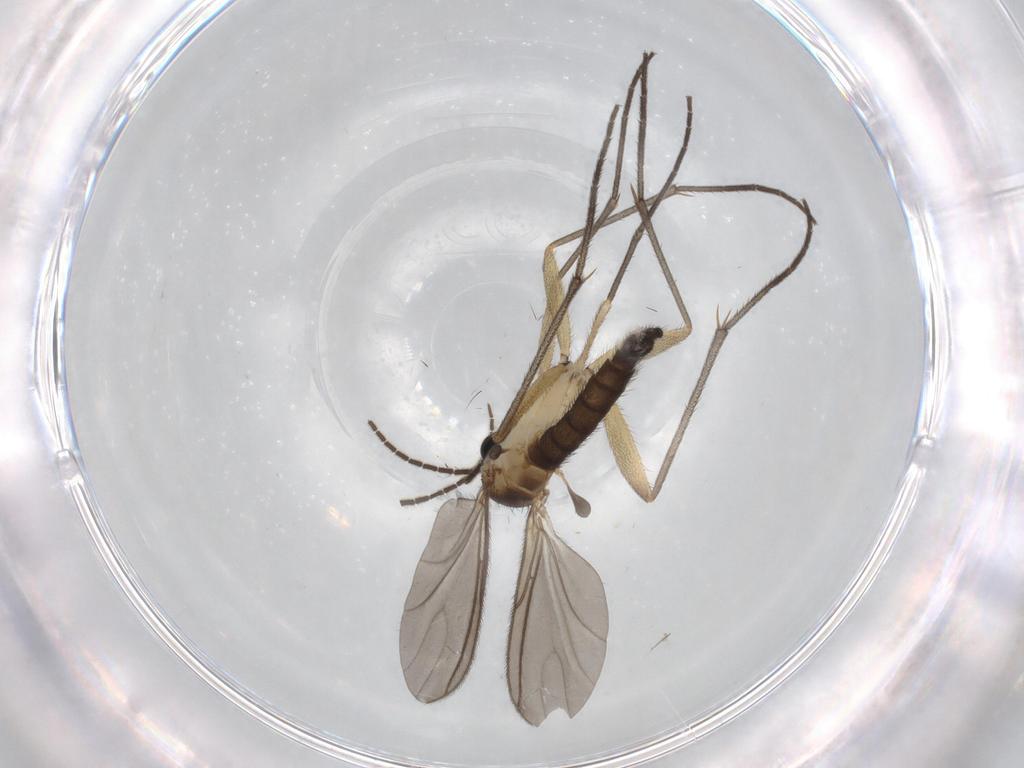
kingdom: Animalia
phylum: Arthropoda
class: Insecta
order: Diptera
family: Sciaridae
